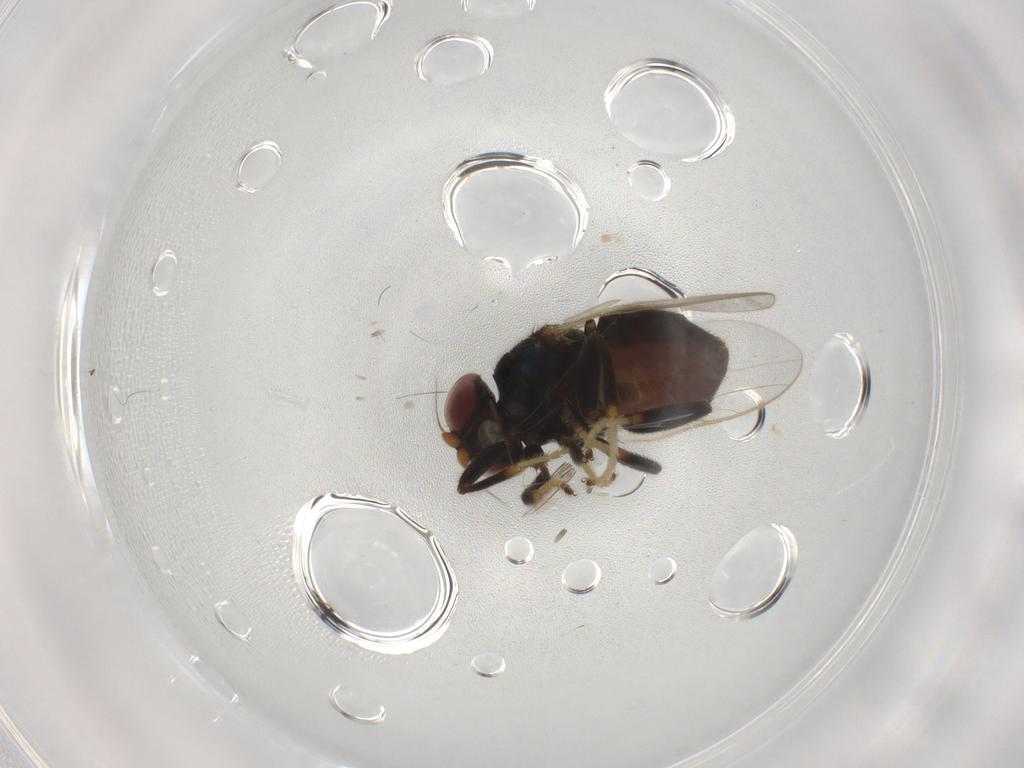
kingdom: Animalia
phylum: Arthropoda
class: Insecta
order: Diptera
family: Chloropidae
